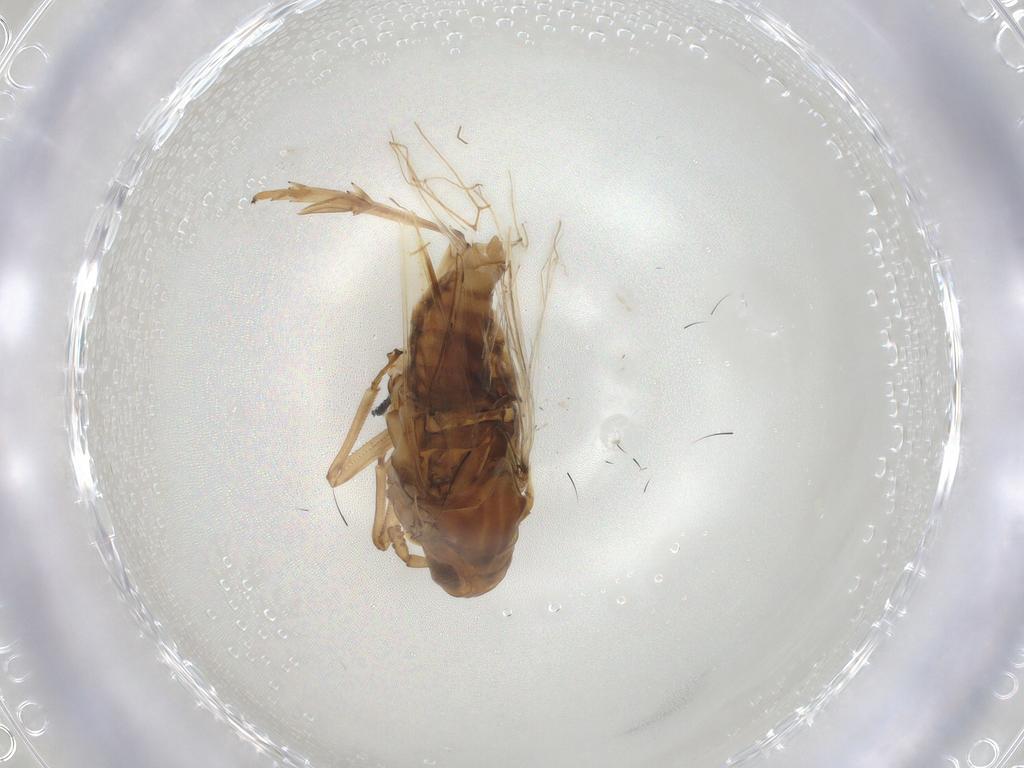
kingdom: Animalia
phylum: Arthropoda
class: Insecta
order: Hemiptera
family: Delphacidae
